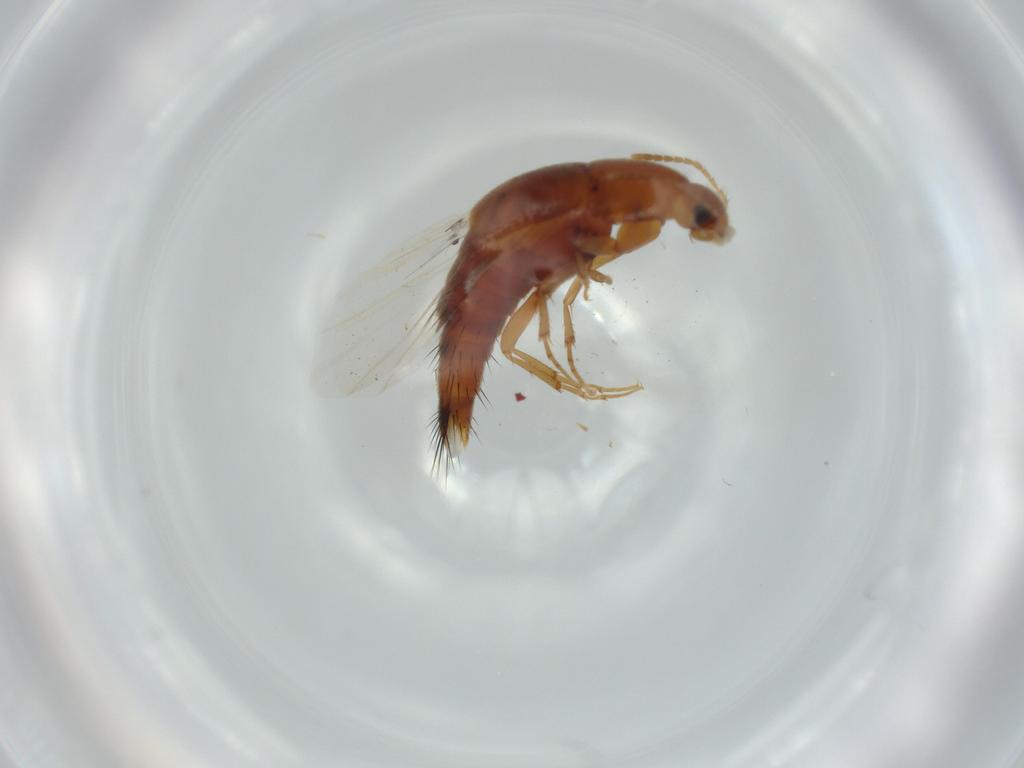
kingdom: Animalia
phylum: Arthropoda
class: Insecta
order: Coleoptera
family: Staphylinidae
